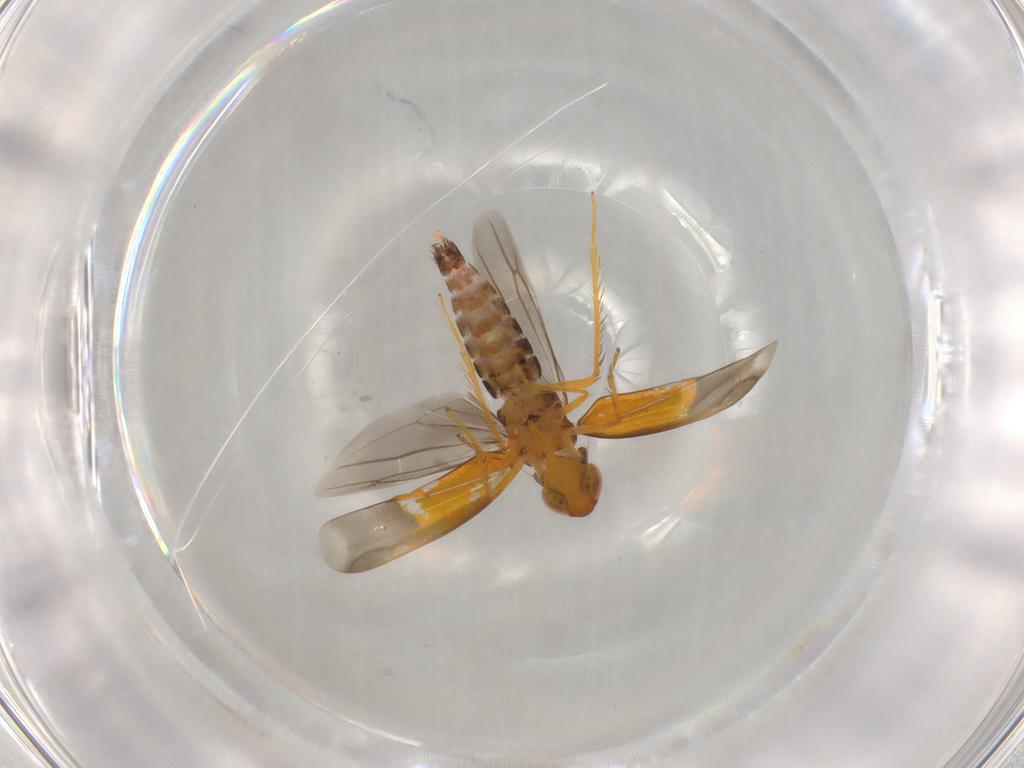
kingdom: Animalia
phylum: Arthropoda
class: Insecta
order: Hemiptera
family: Cicadellidae
